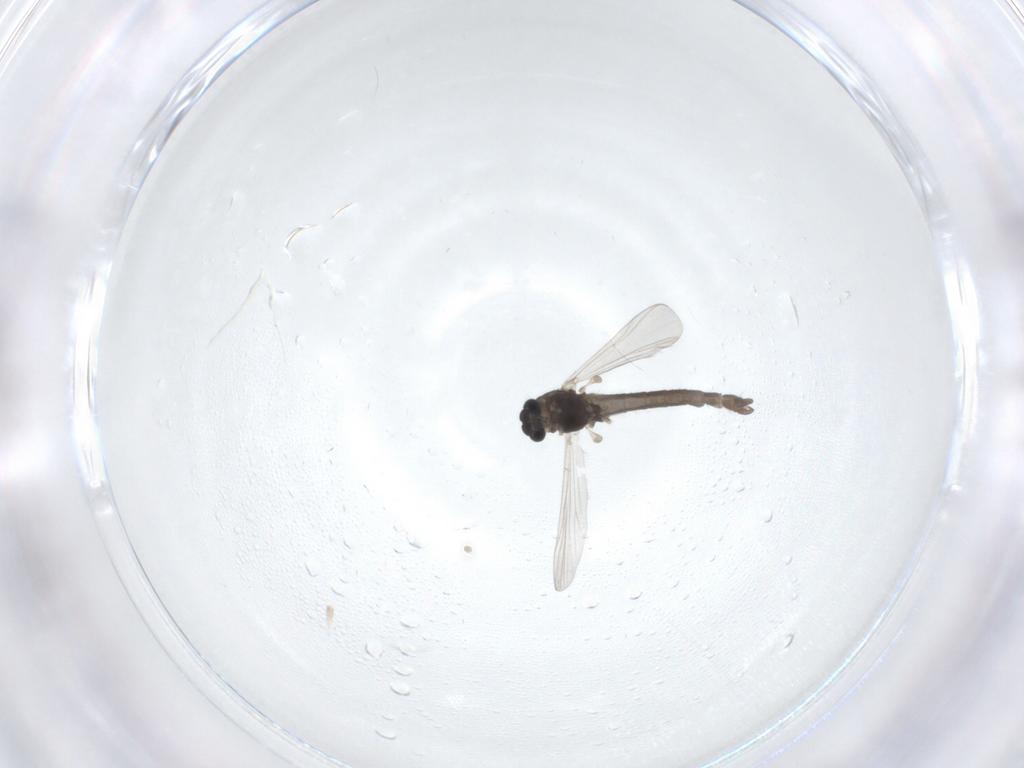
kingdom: Animalia
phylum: Arthropoda
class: Insecta
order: Diptera
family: Chironomidae
